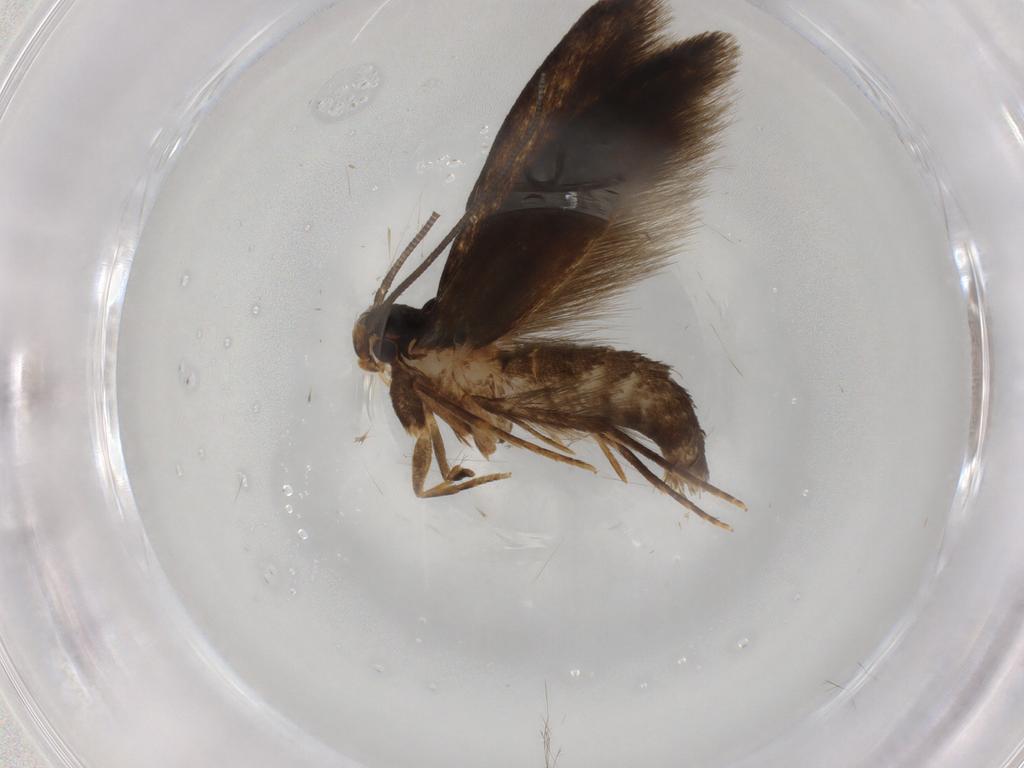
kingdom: Animalia
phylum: Arthropoda
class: Insecta
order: Lepidoptera
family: Tineidae
